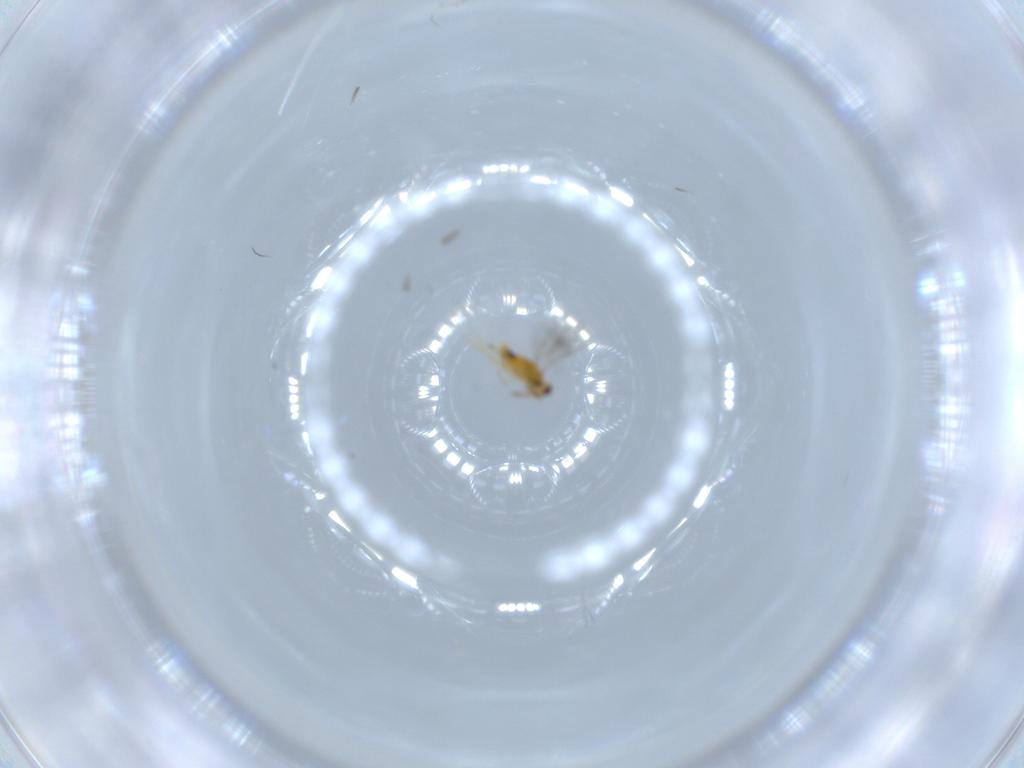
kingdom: Animalia
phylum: Arthropoda
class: Insecta
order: Hymenoptera
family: Aphelinidae
